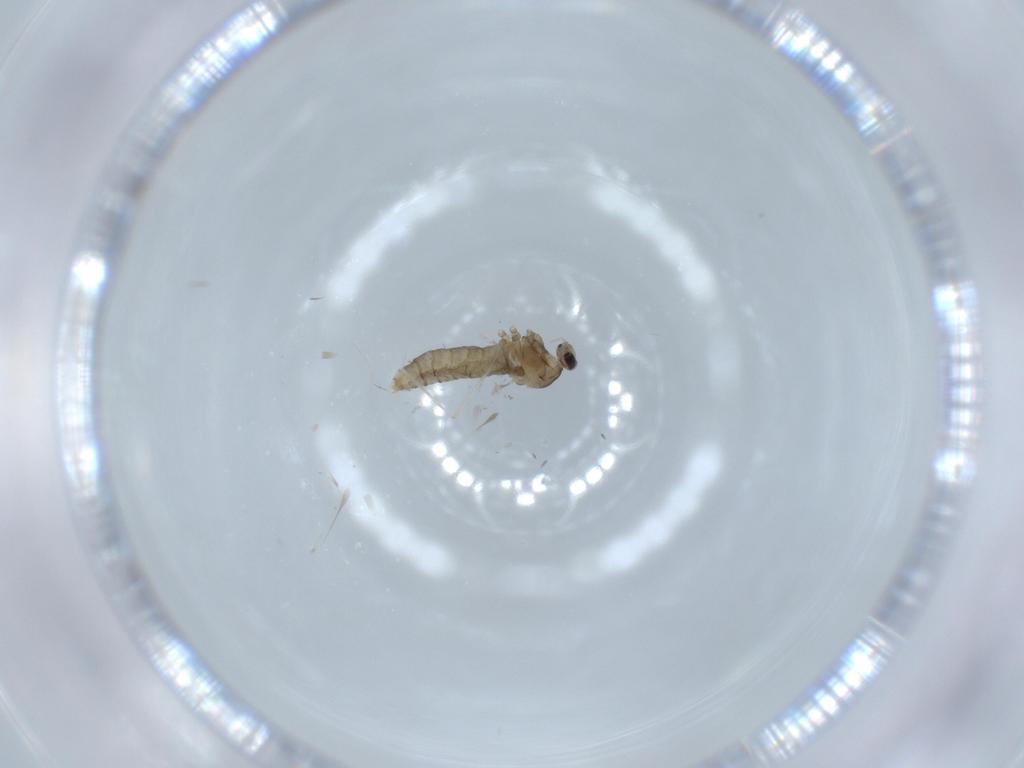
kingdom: Animalia
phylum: Arthropoda
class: Insecta
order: Diptera
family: Cecidomyiidae
